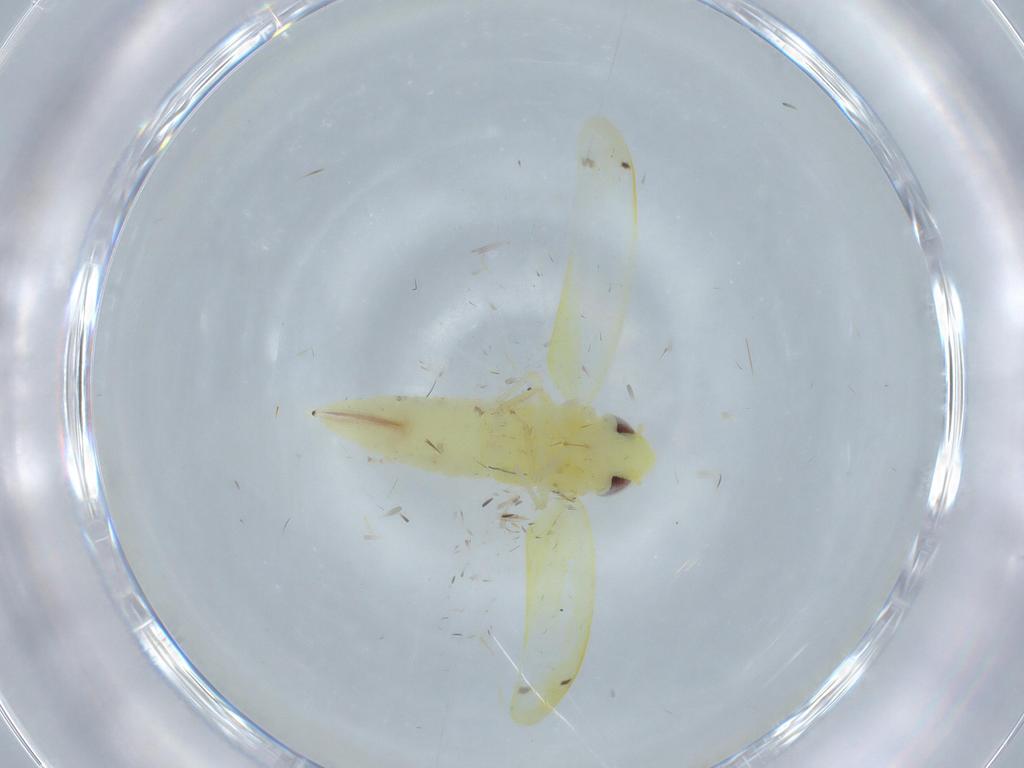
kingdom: Animalia
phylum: Arthropoda
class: Insecta
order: Hemiptera
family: Cicadellidae
